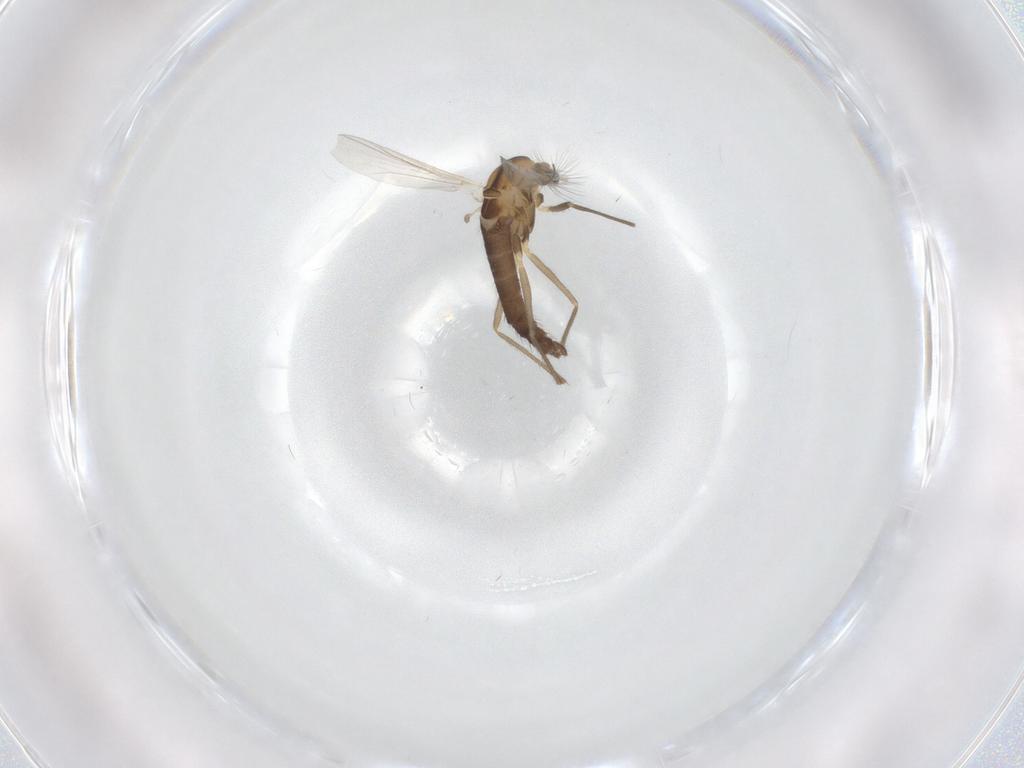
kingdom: Animalia
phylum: Arthropoda
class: Insecta
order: Diptera
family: Chironomidae
